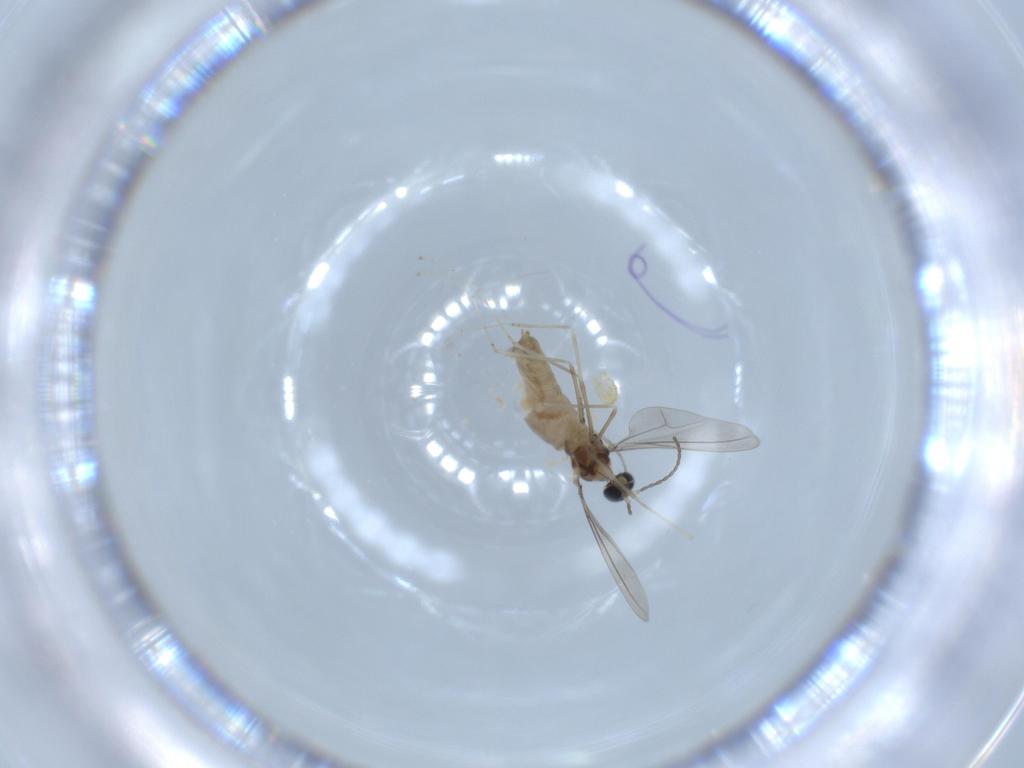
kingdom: Animalia
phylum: Arthropoda
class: Insecta
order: Diptera
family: Cecidomyiidae
